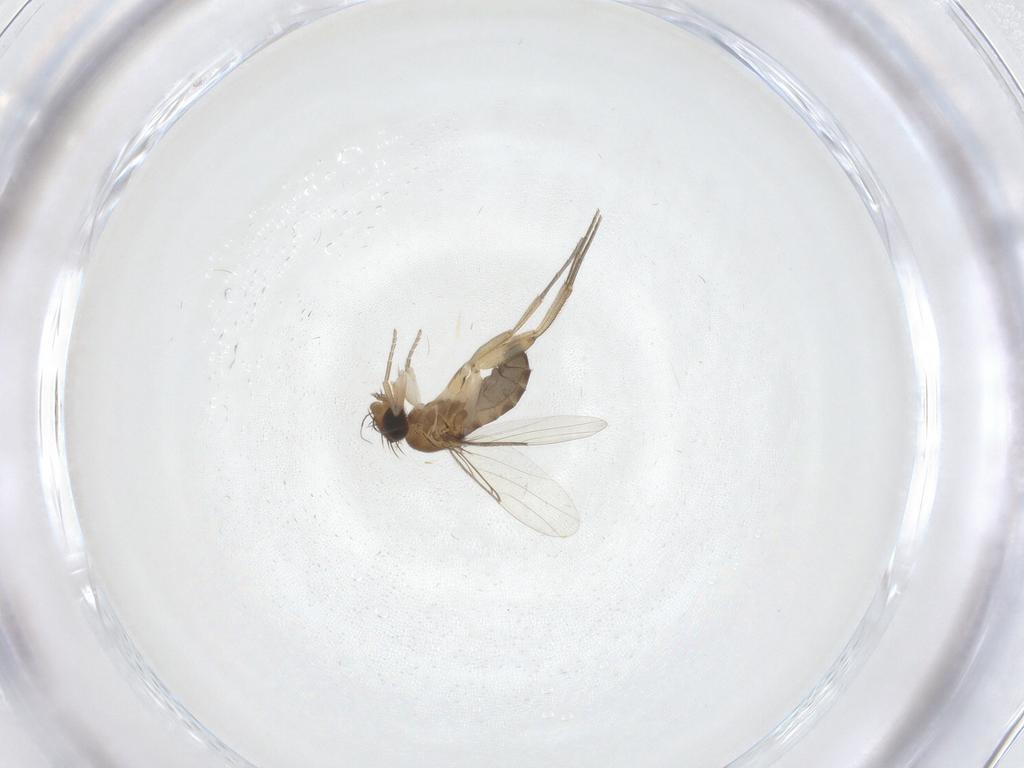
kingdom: Animalia
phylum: Arthropoda
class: Insecta
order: Diptera
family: Phoridae
